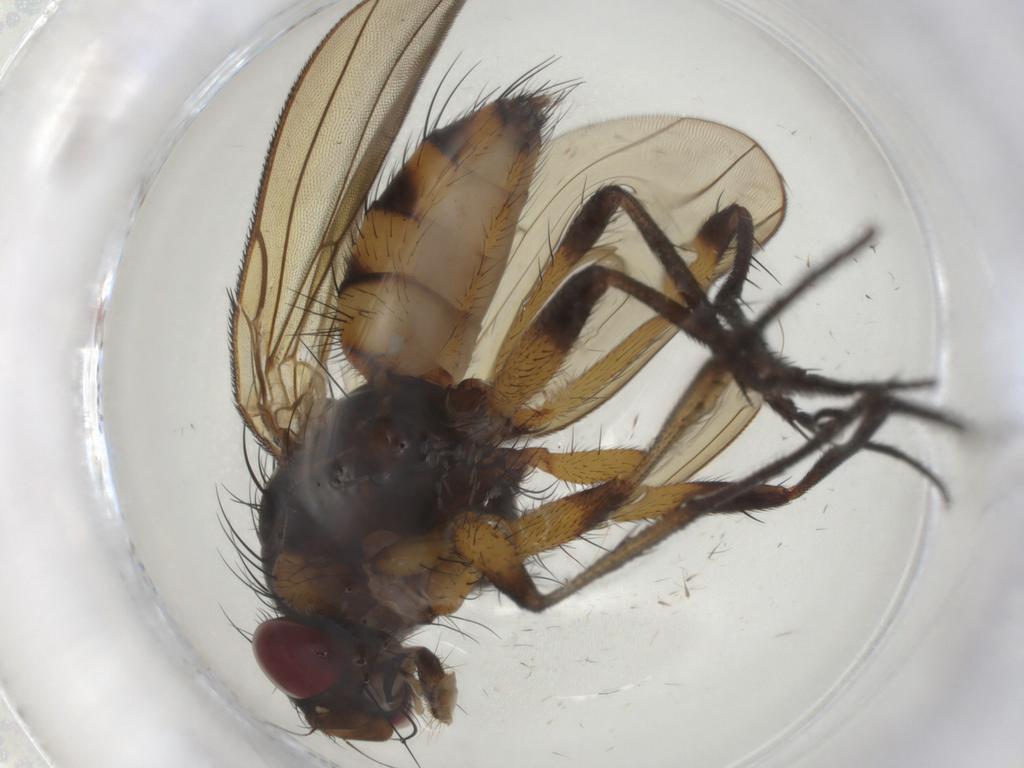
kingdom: Animalia
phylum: Arthropoda
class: Insecta
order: Diptera
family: Anthomyiidae
